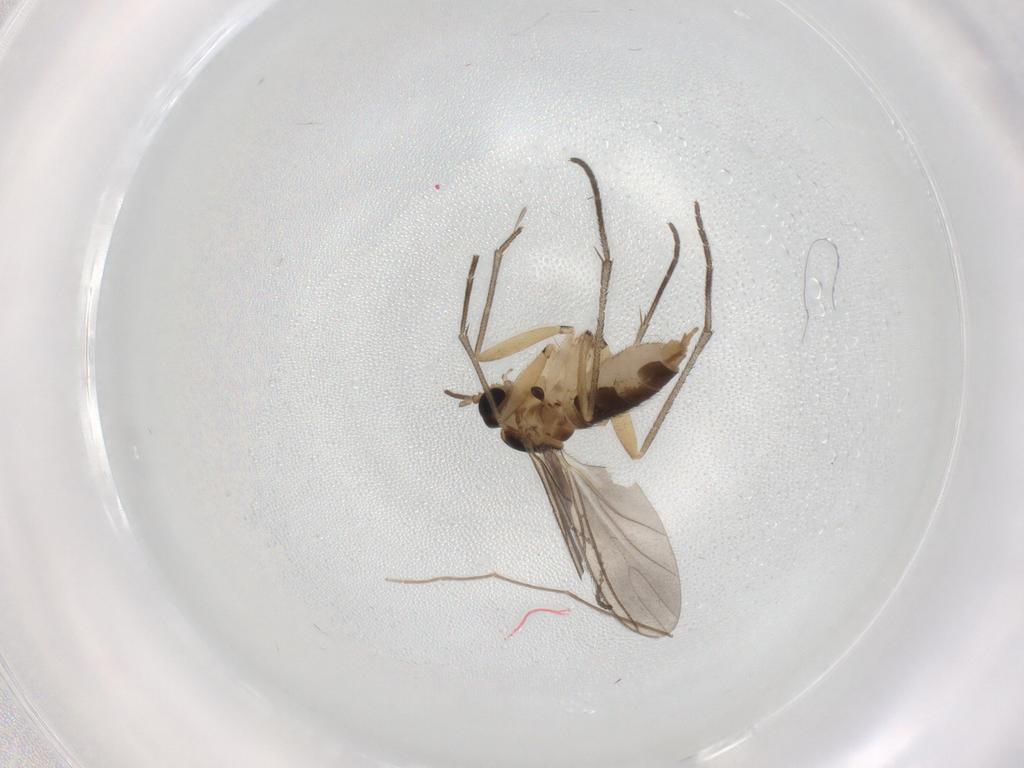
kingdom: Animalia
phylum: Arthropoda
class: Insecta
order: Diptera
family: Cecidomyiidae
